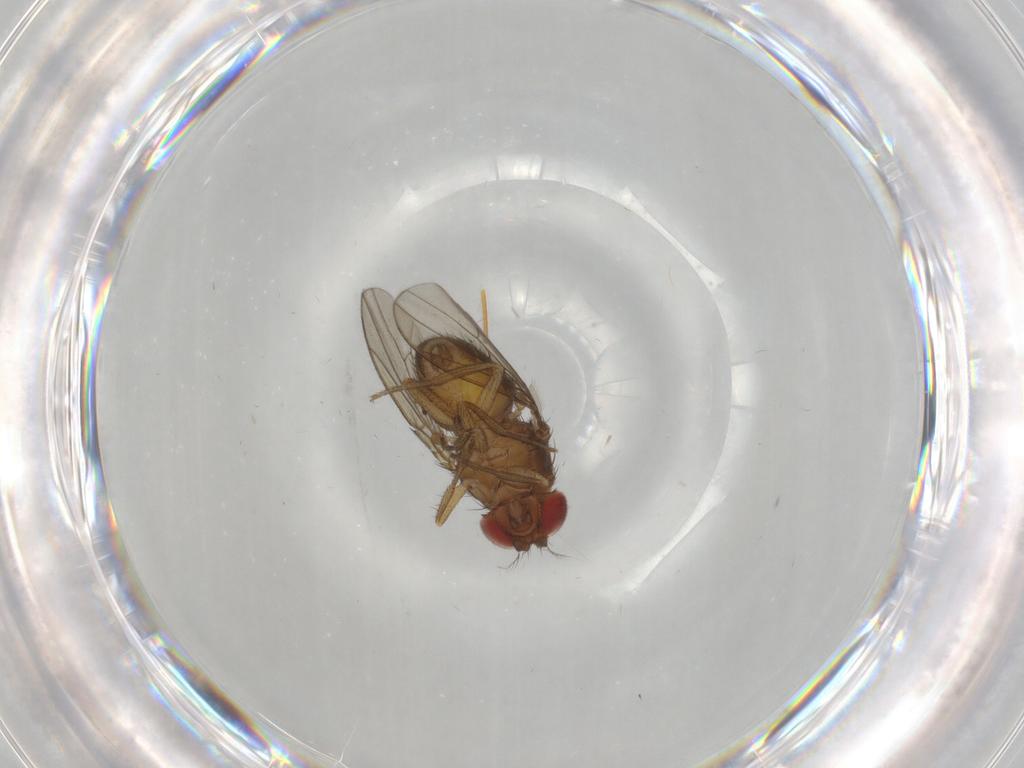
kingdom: Animalia
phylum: Arthropoda
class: Insecta
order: Diptera
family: Drosophilidae
